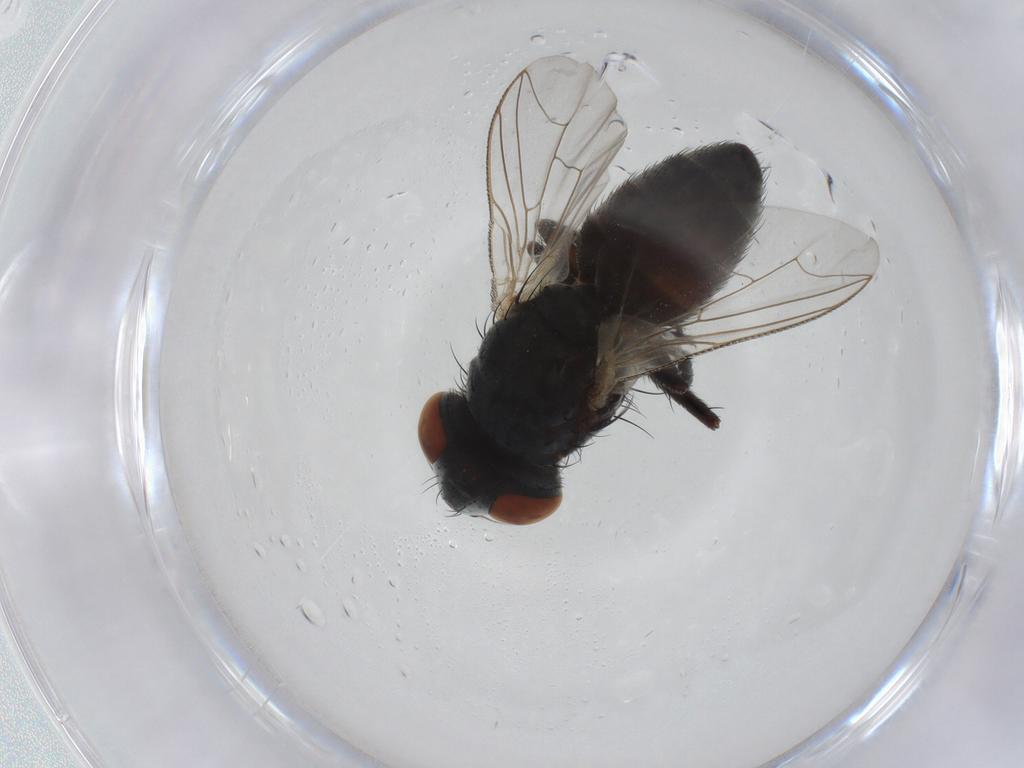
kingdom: Animalia
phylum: Arthropoda
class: Insecta
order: Diptera
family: Sarcophagidae
